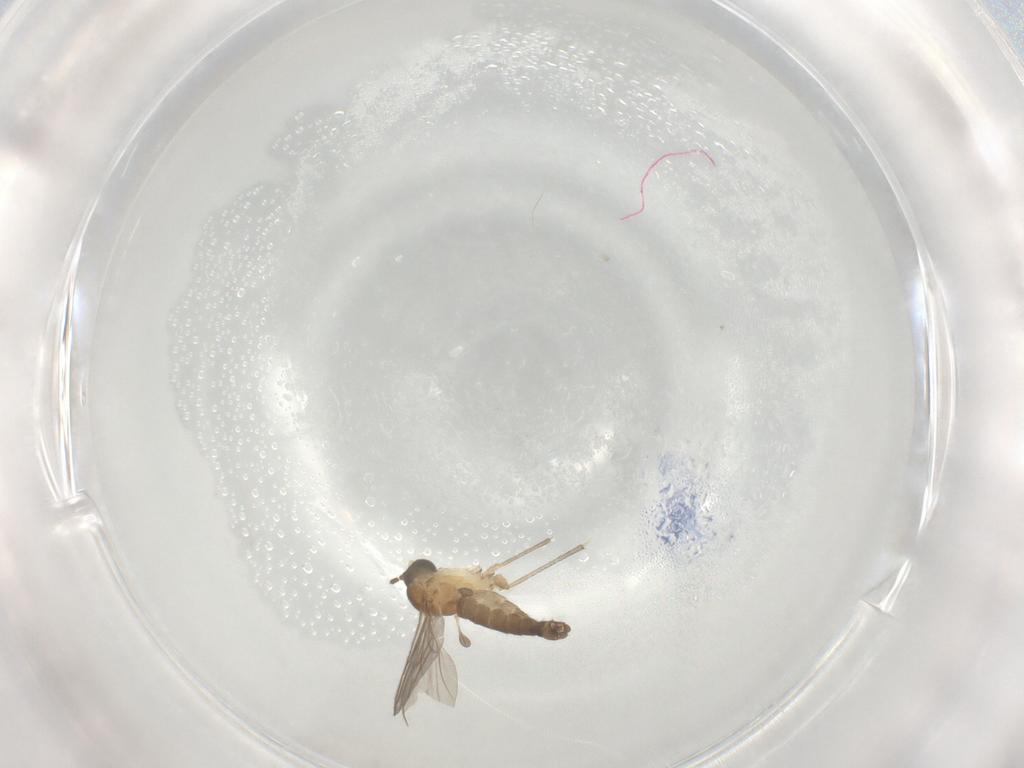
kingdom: Animalia
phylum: Arthropoda
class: Insecta
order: Diptera
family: Sciaridae
